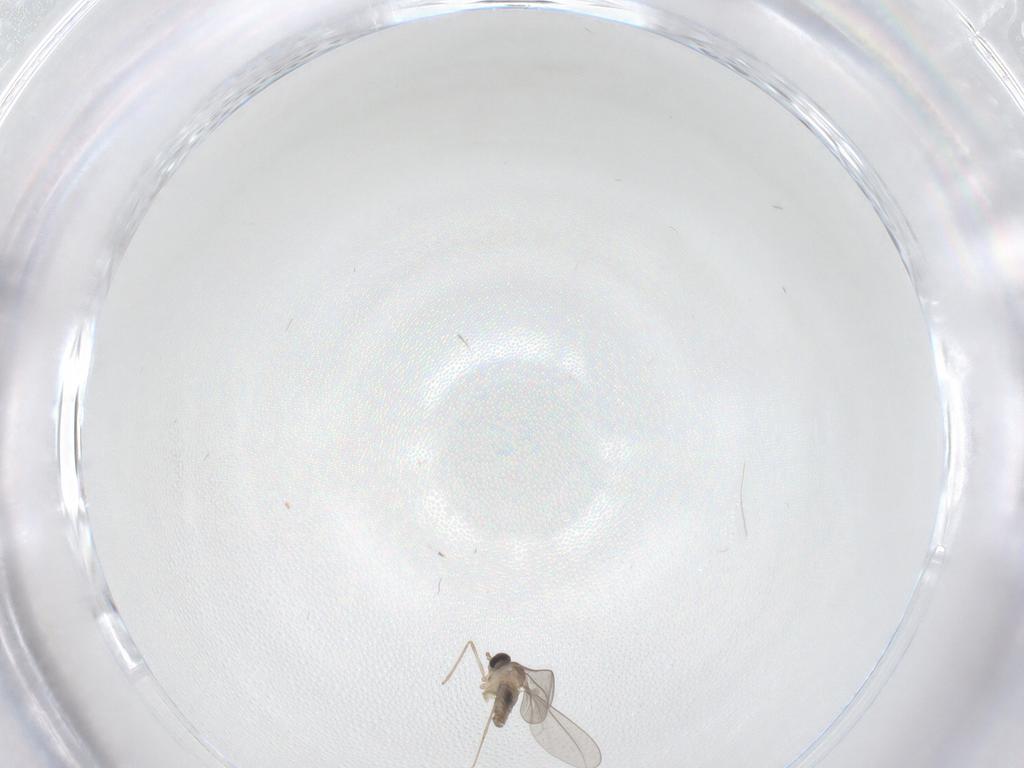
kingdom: Animalia
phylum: Arthropoda
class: Insecta
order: Diptera
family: Cecidomyiidae
